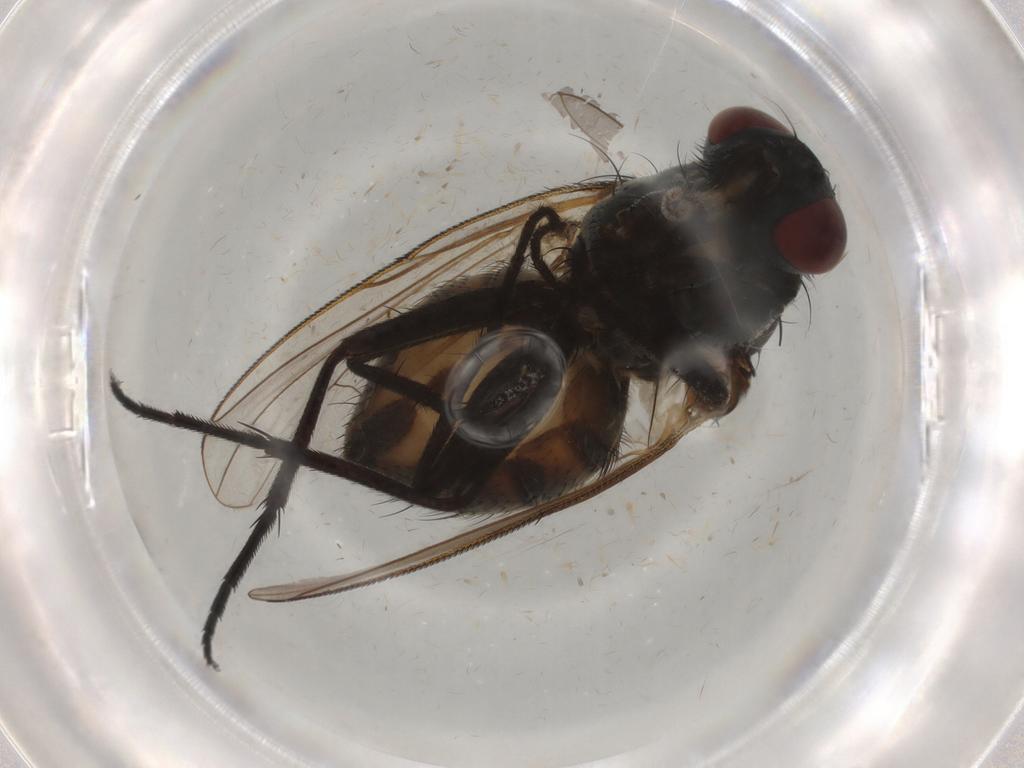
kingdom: Animalia
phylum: Arthropoda
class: Insecta
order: Diptera
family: Muscidae
